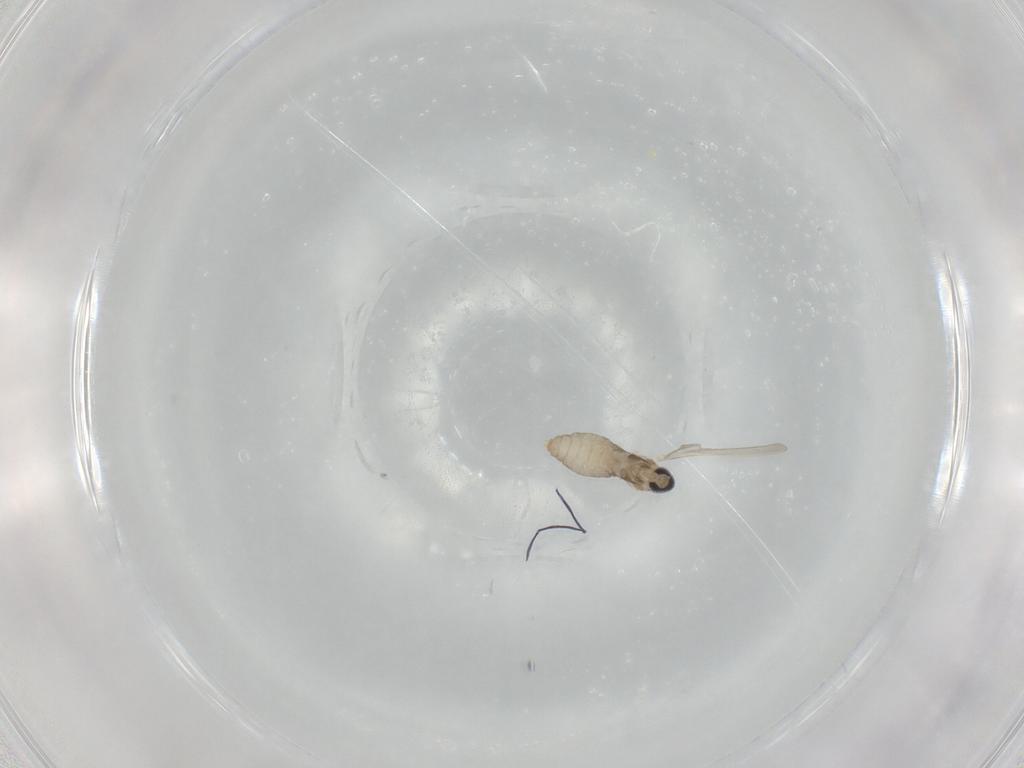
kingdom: Animalia
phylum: Arthropoda
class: Insecta
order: Diptera
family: Cecidomyiidae
